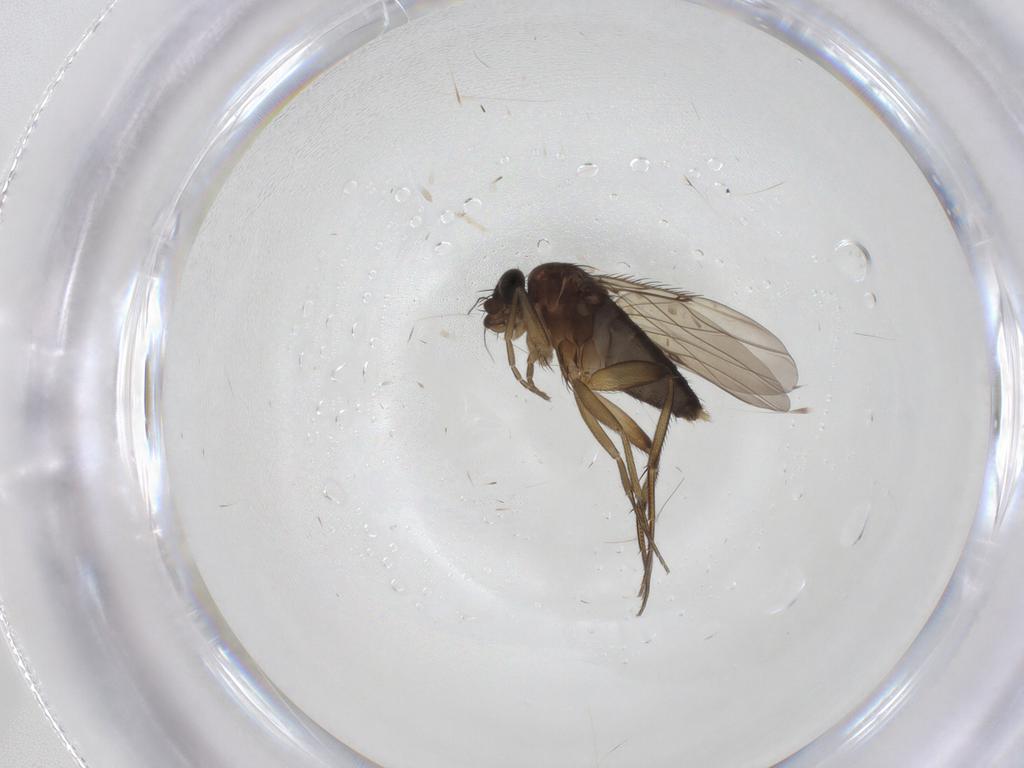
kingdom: Animalia
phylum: Arthropoda
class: Insecta
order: Diptera
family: Phoridae
